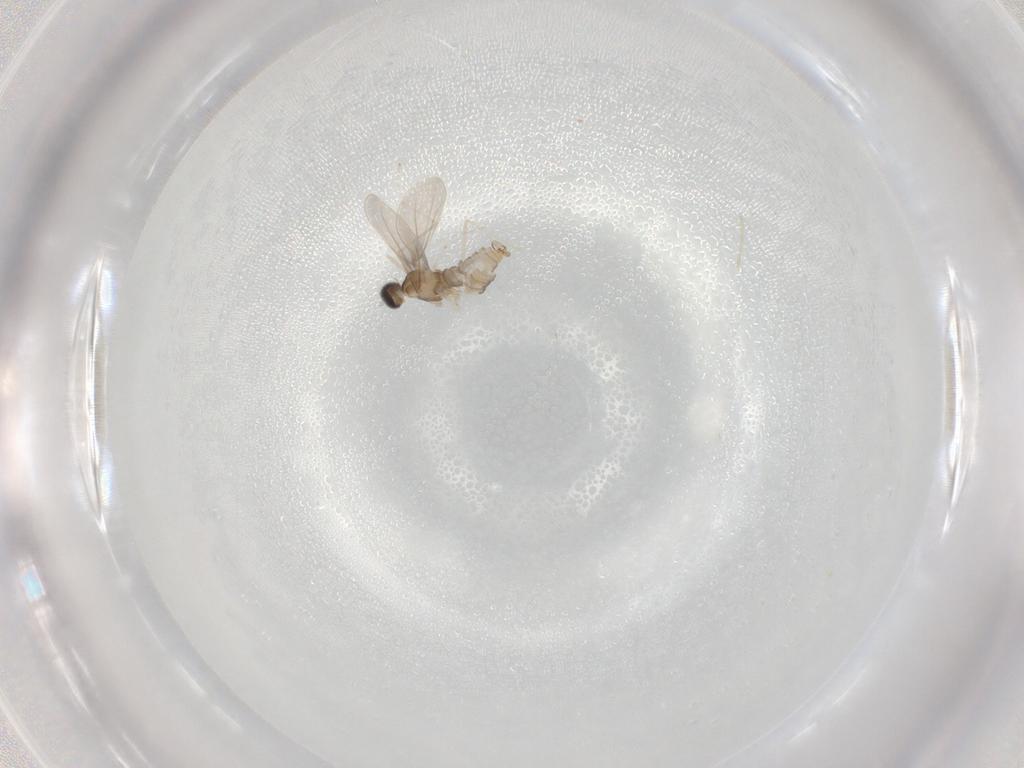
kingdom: Animalia
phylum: Arthropoda
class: Insecta
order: Diptera
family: Cecidomyiidae
